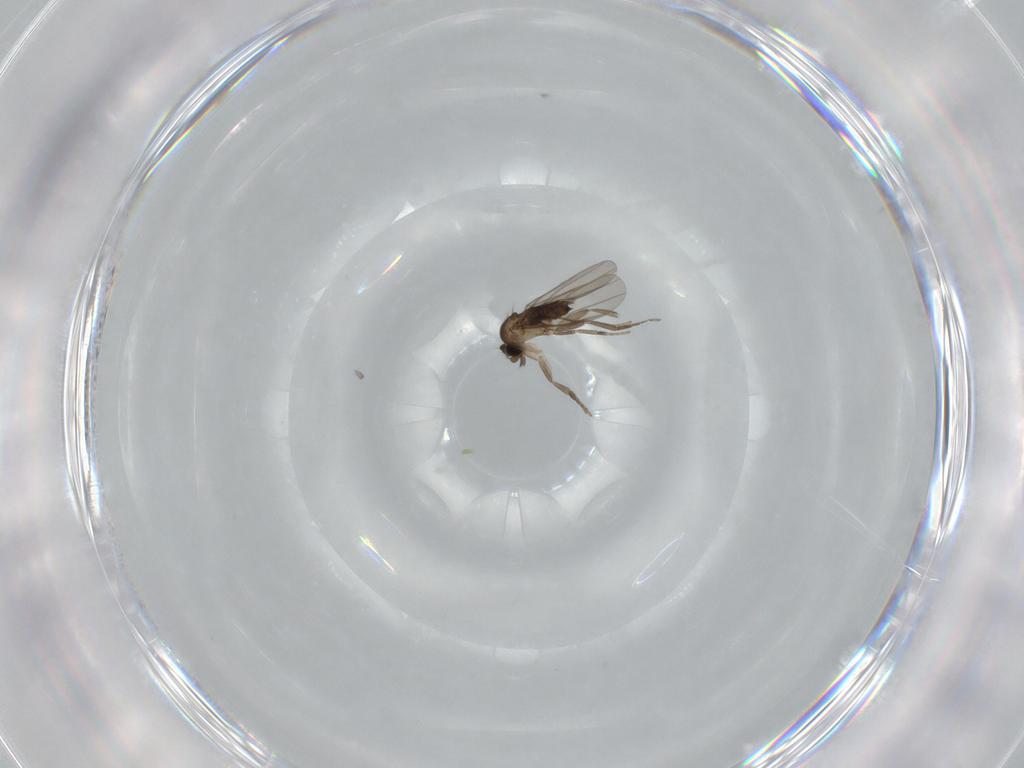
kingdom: Animalia
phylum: Arthropoda
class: Insecta
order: Diptera
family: Phoridae
